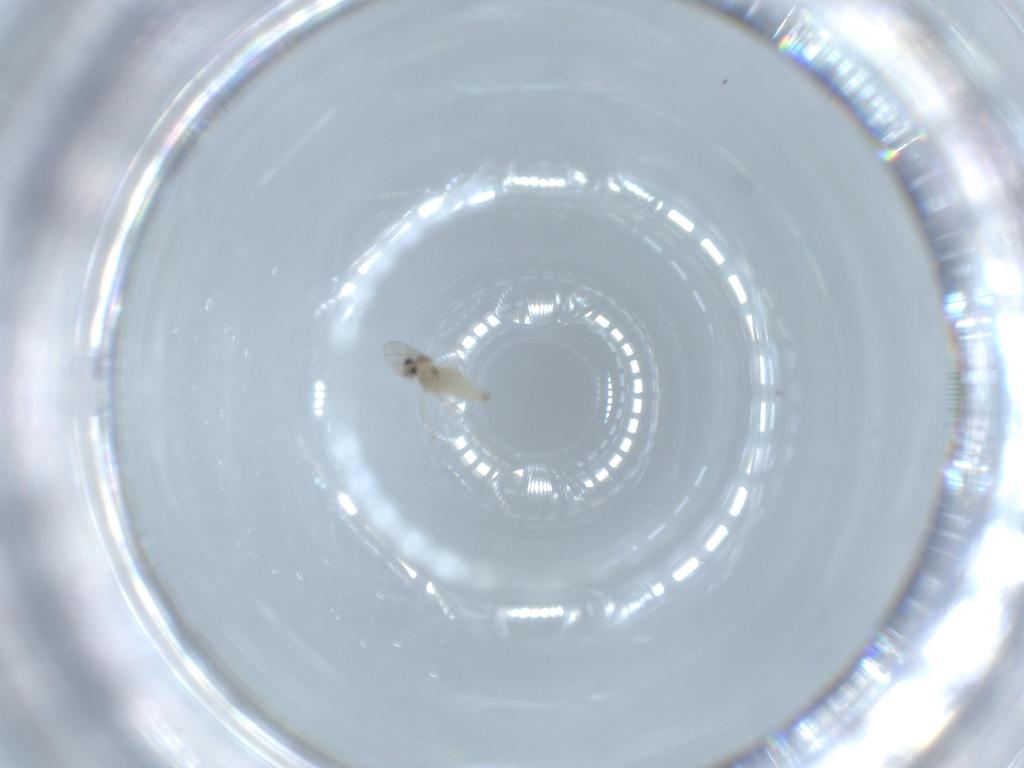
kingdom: Animalia
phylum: Arthropoda
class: Insecta
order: Diptera
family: Cecidomyiidae
